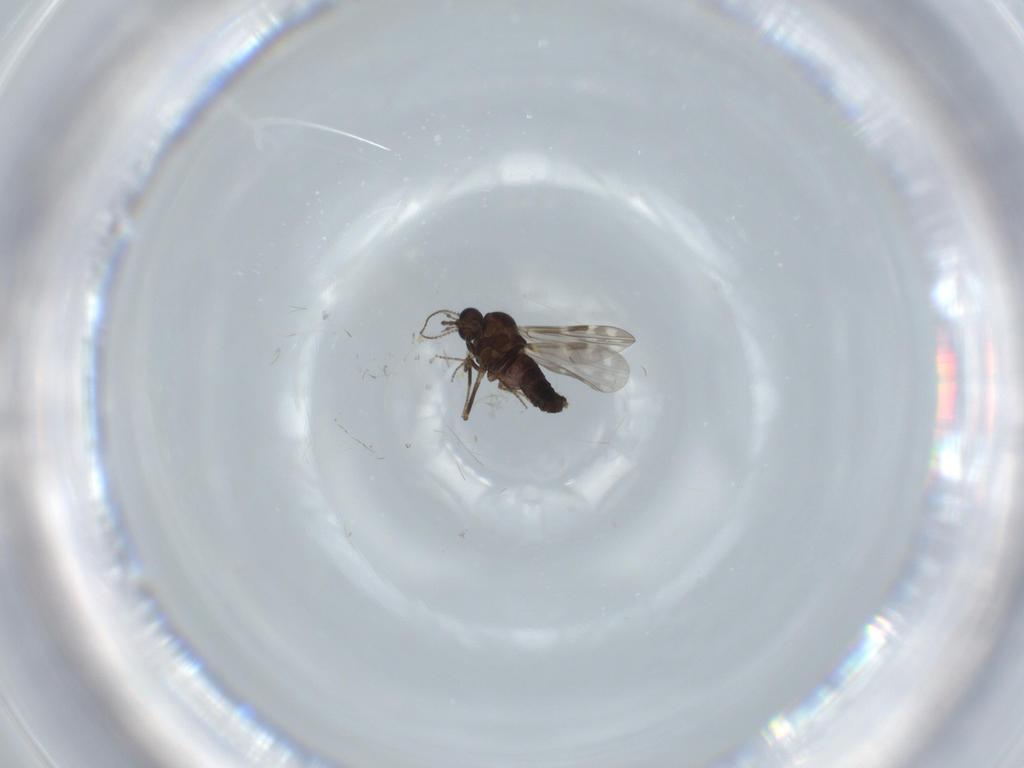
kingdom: Animalia
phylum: Arthropoda
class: Insecta
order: Diptera
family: Cecidomyiidae
